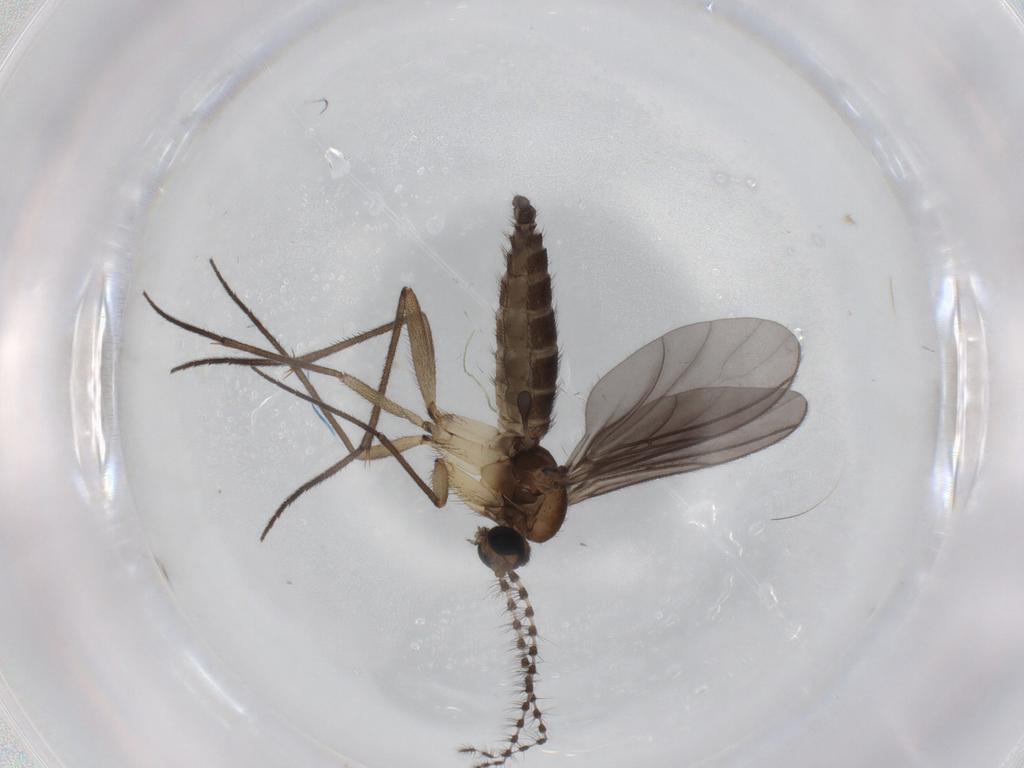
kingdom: Animalia
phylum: Arthropoda
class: Insecta
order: Diptera
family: Sciaridae
